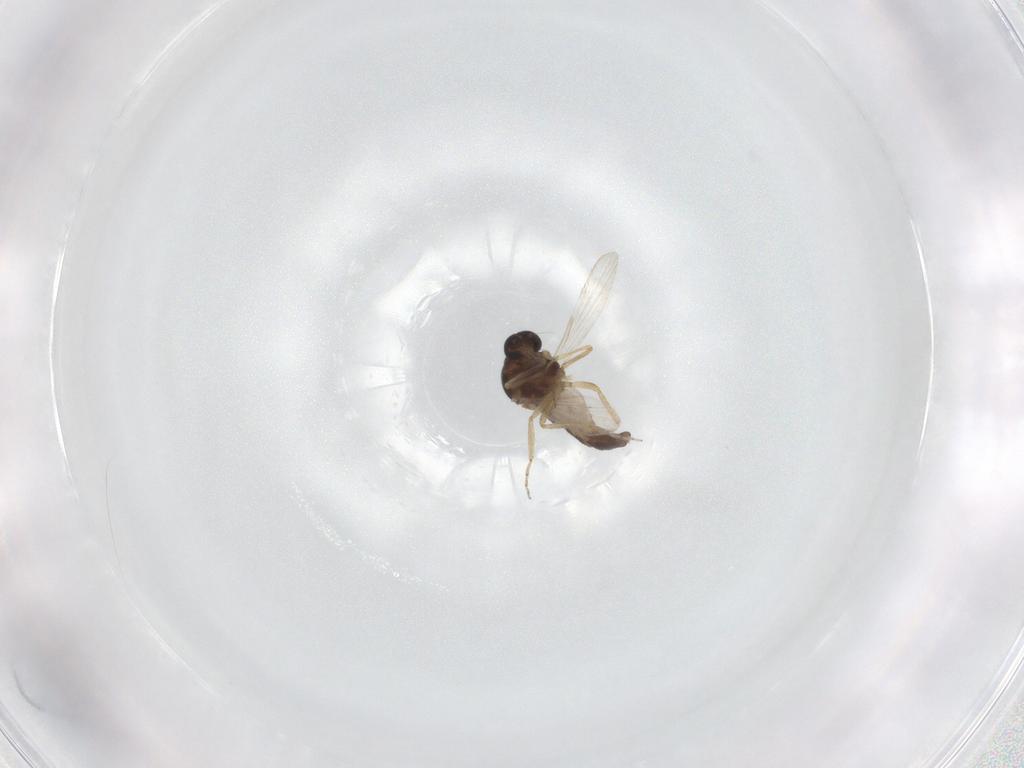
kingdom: Animalia
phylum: Arthropoda
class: Insecta
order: Diptera
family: Ceratopogonidae
